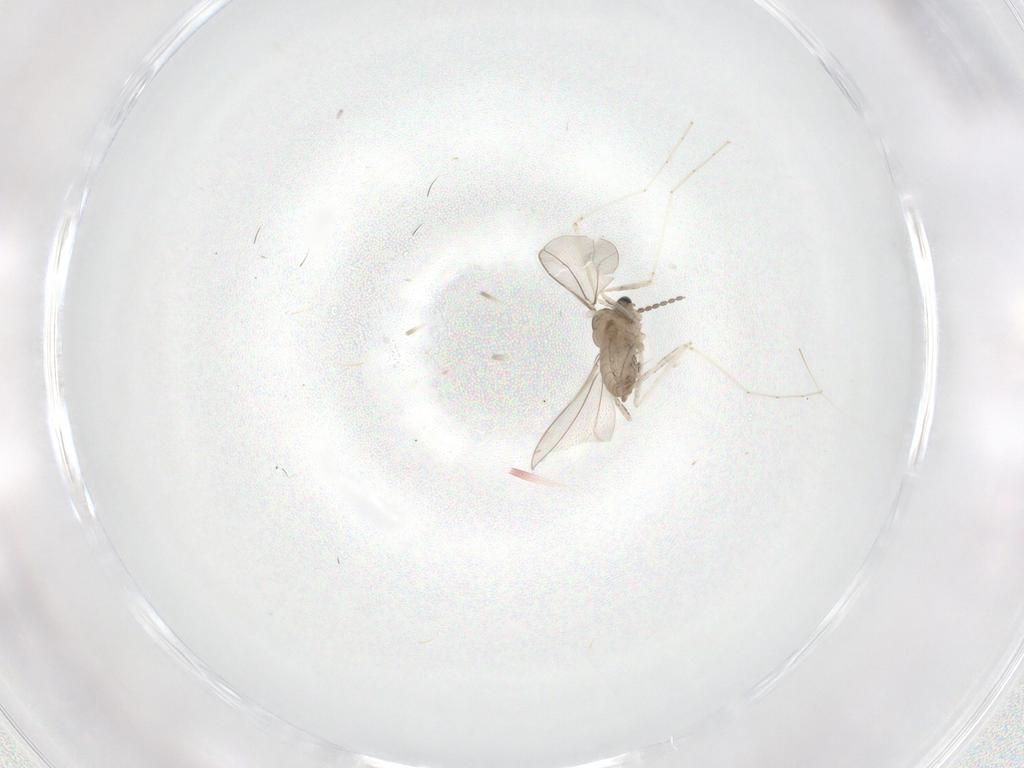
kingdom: Animalia
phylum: Arthropoda
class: Insecta
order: Diptera
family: Cecidomyiidae
